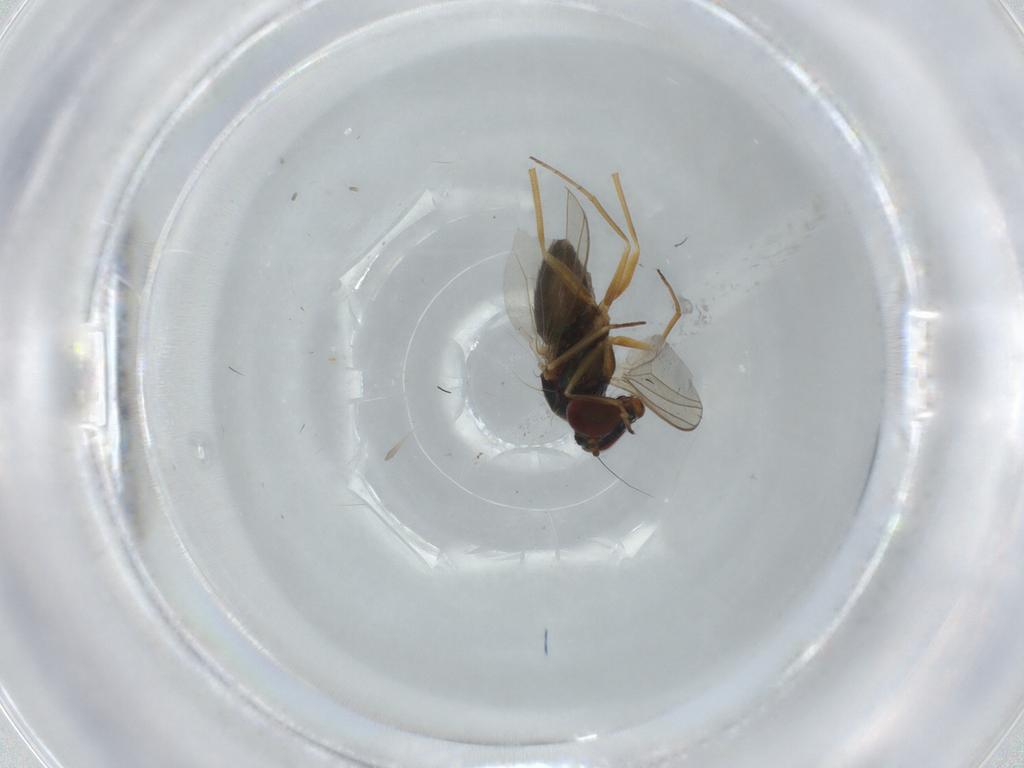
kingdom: Animalia
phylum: Arthropoda
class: Insecta
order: Diptera
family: Dolichopodidae
